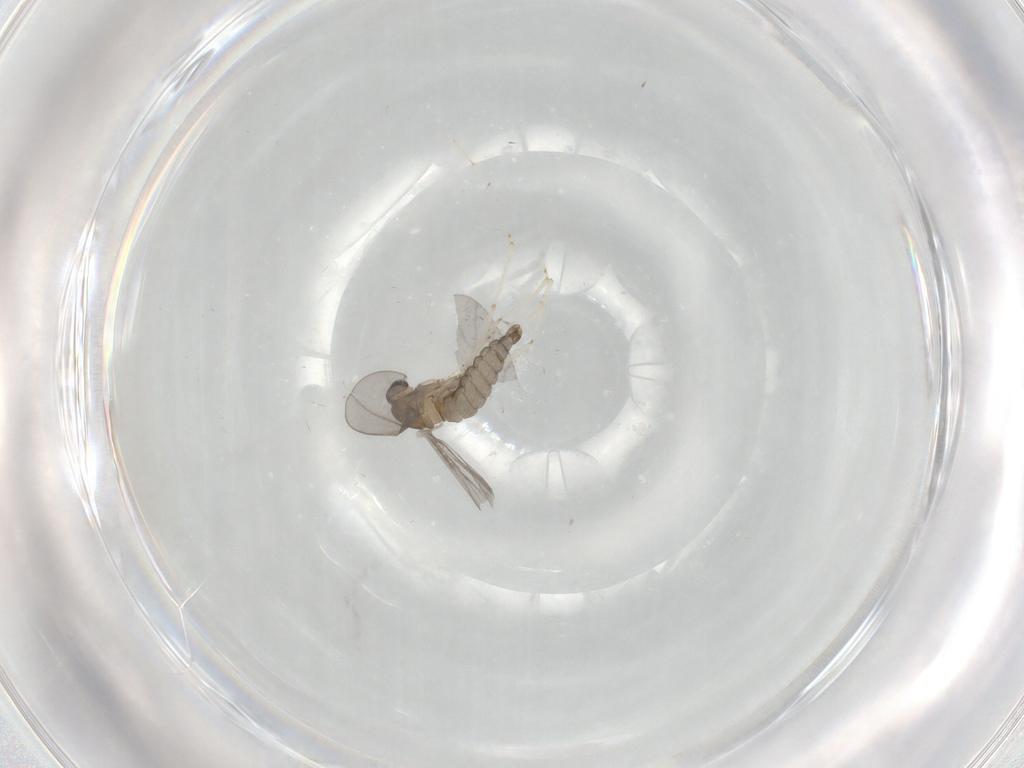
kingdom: Animalia
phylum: Arthropoda
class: Insecta
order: Diptera
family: Cecidomyiidae
